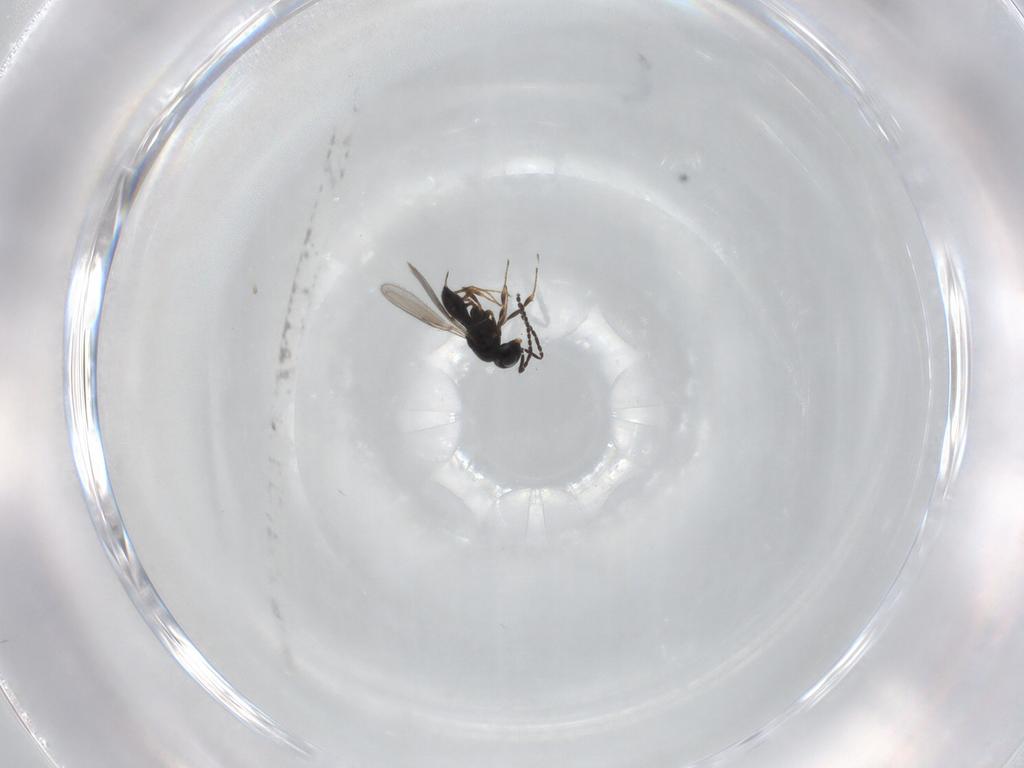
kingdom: Animalia
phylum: Arthropoda
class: Insecta
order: Hymenoptera
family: Scelionidae
